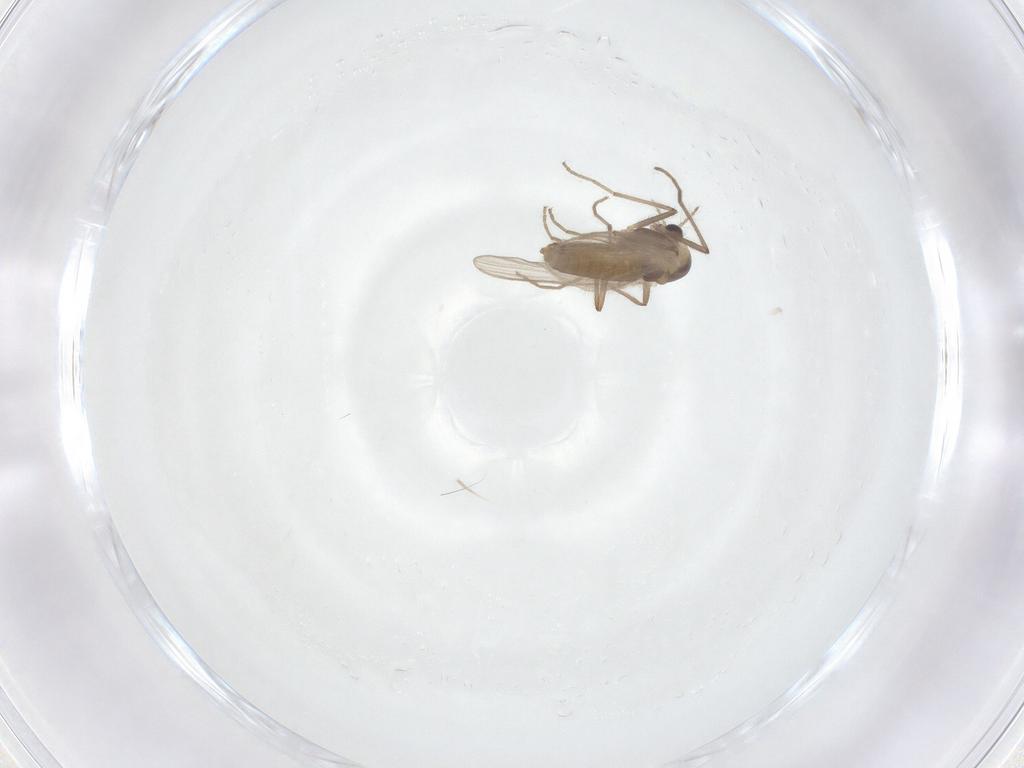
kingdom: Animalia
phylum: Arthropoda
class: Insecta
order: Diptera
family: Chironomidae
